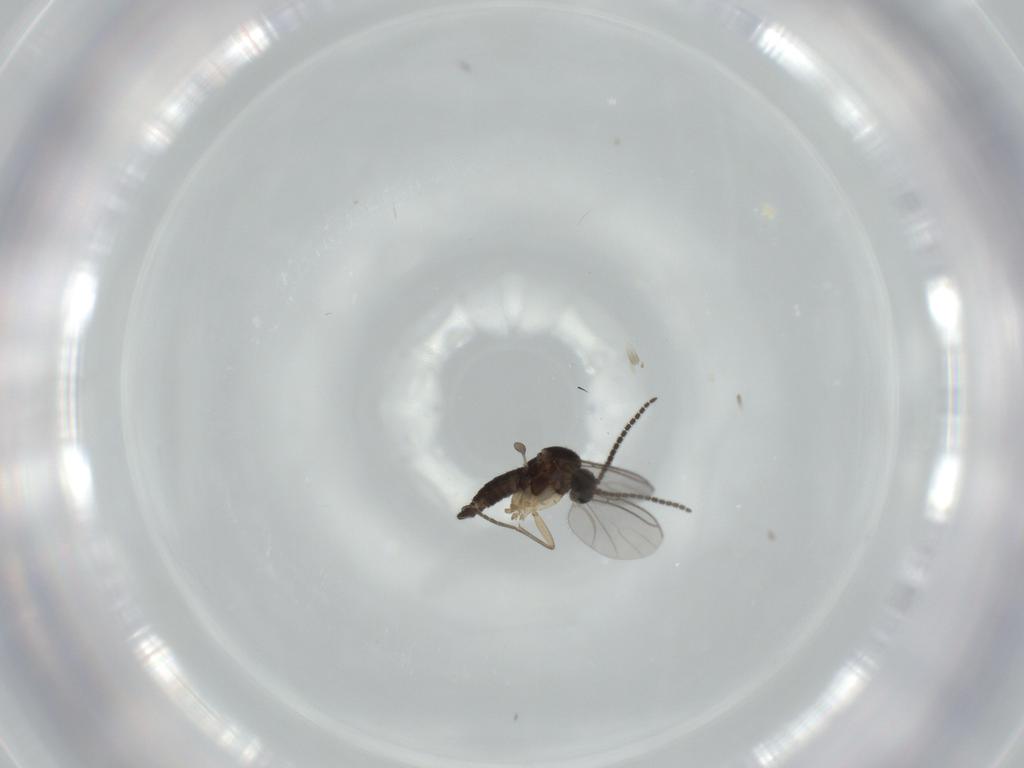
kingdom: Animalia
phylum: Arthropoda
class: Insecta
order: Diptera
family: Sciaridae
